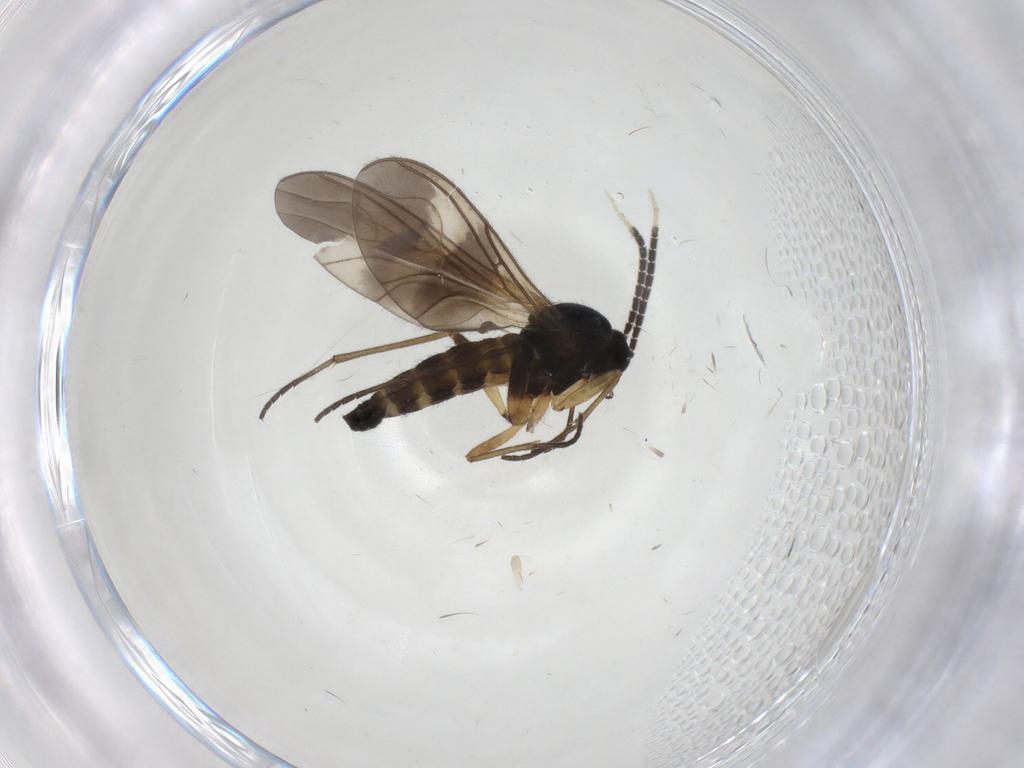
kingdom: Animalia
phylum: Arthropoda
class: Insecta
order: Diptera
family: Sciaridae
